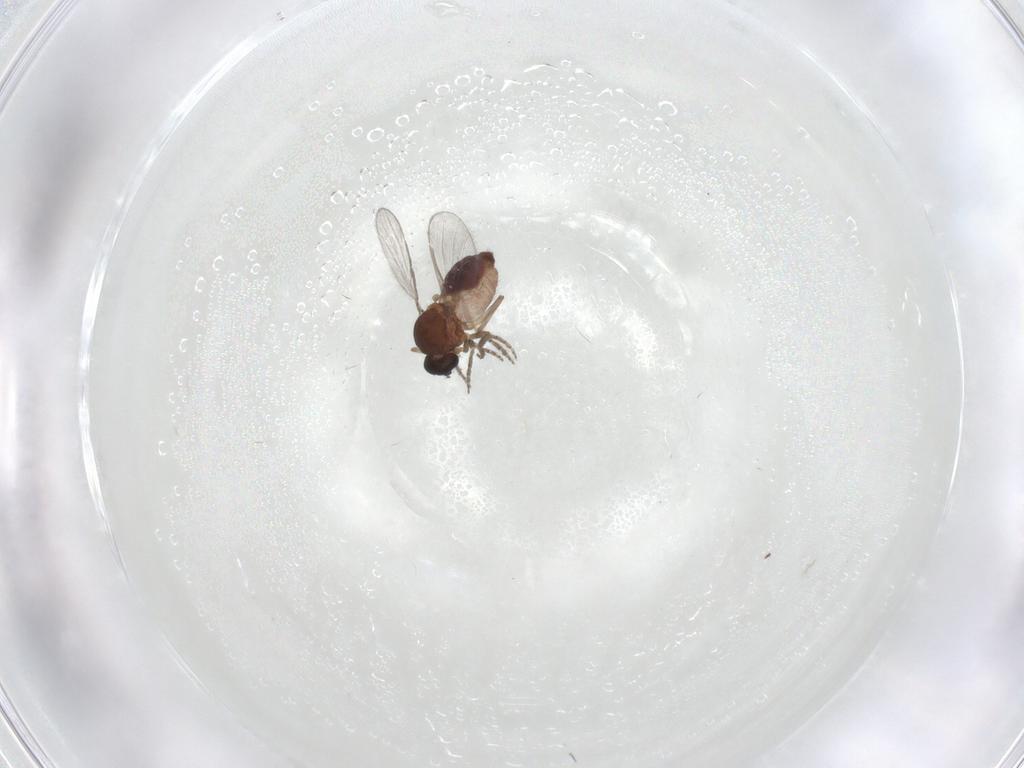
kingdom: Animalia
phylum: Arthropoda
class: Insecta
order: Diptera
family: Ceratopogonidae
